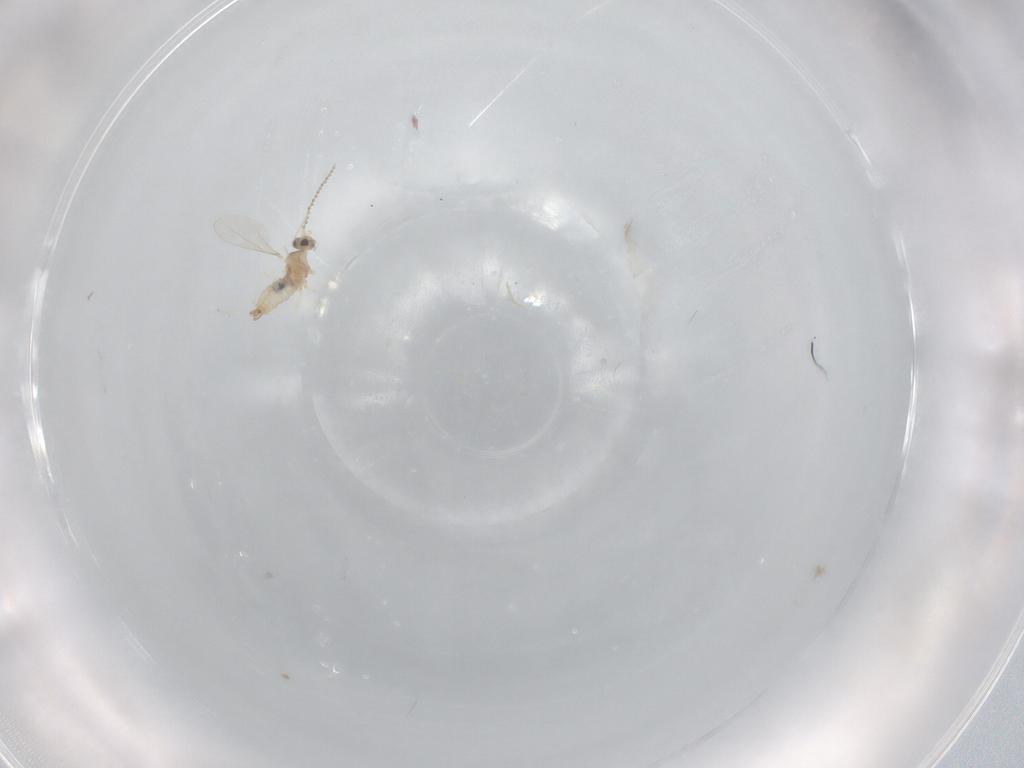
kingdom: Animalia
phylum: Arthropoda
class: Insecta
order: Diptera
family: Cecidomyiidae
